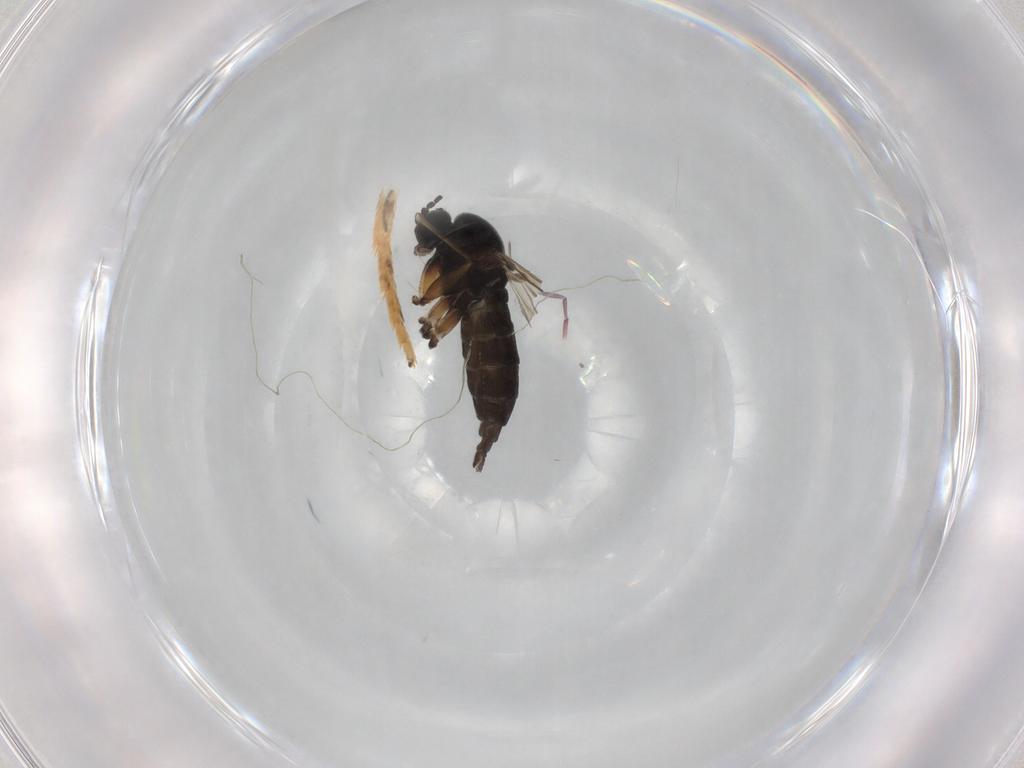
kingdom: Animalia
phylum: Arthropoda
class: Insecta
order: Diptera
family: Sciaridae
